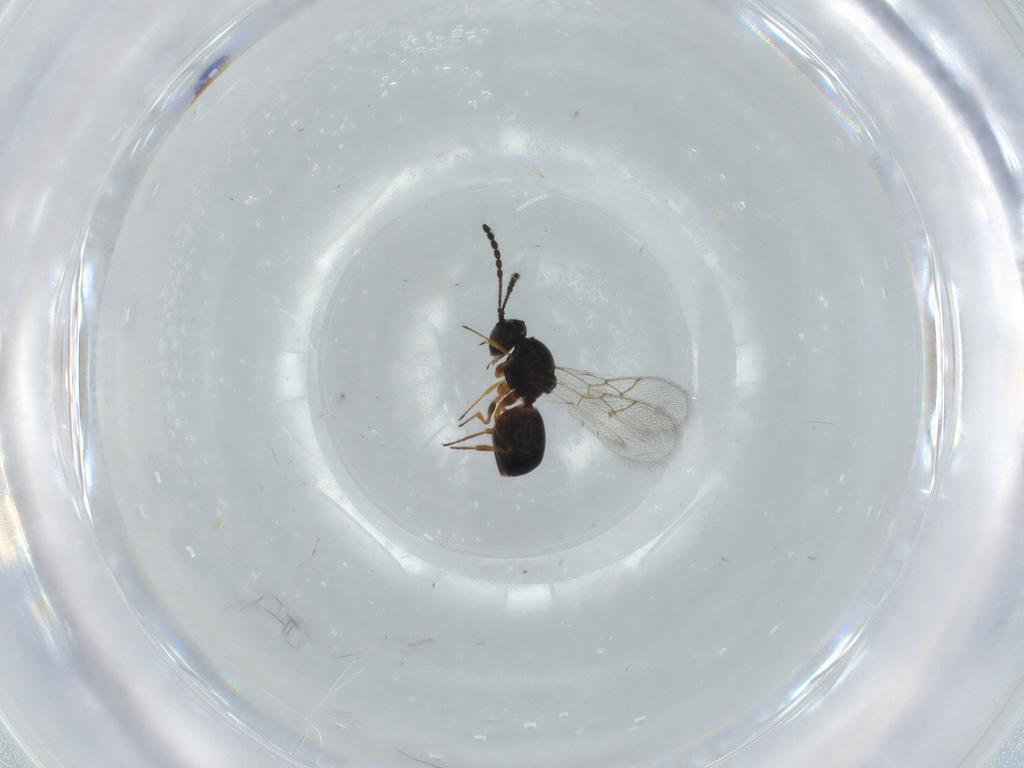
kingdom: Animalia
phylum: Arthropoda
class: Insecta
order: Hymenoptera
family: Figitidae
